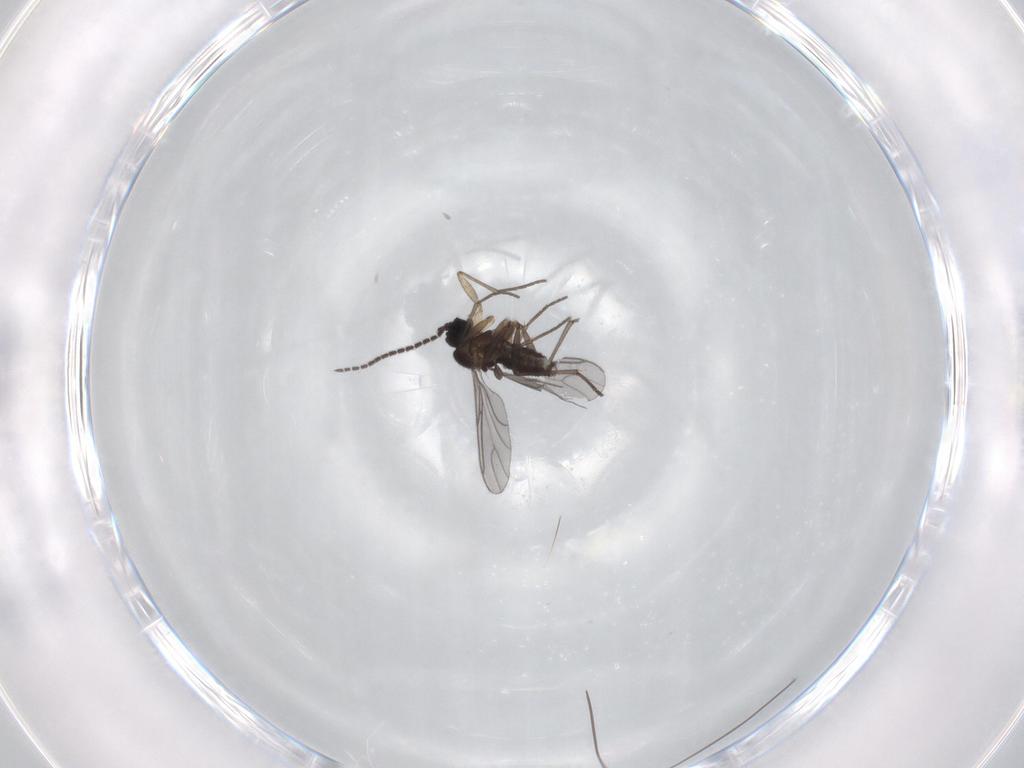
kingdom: Animalia
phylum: Arthropoda
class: Insecta
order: Diptera
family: Sciaridae
